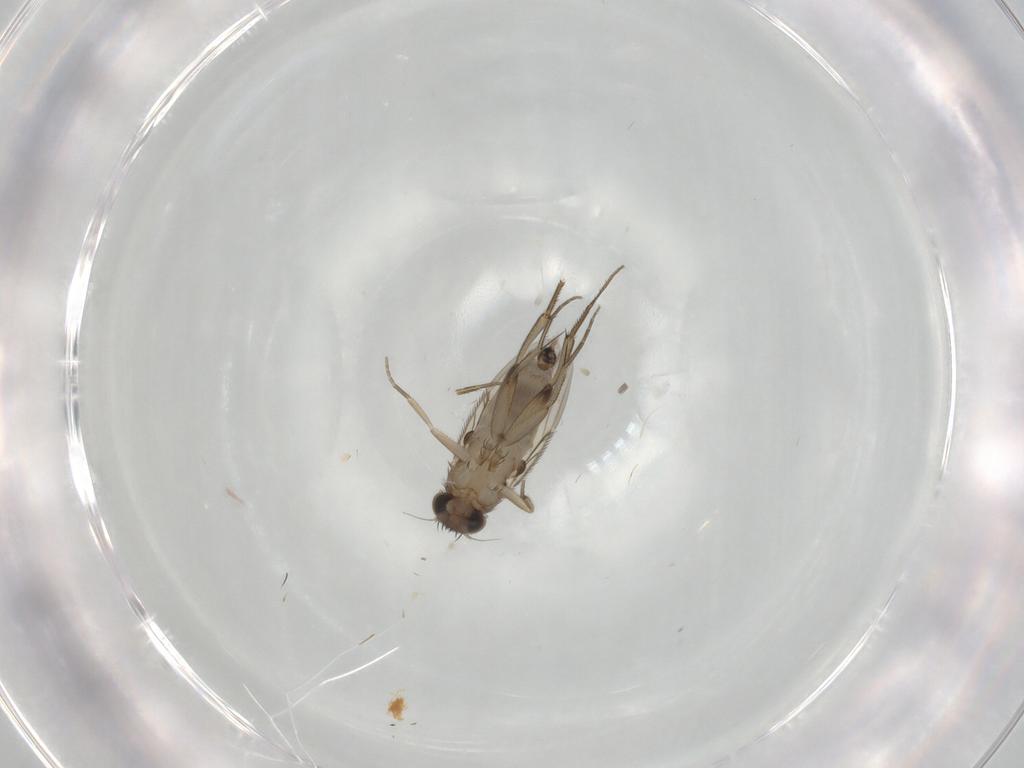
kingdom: Animalia
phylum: Arthropoda
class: Insecta
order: Diptera
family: Phoridae
